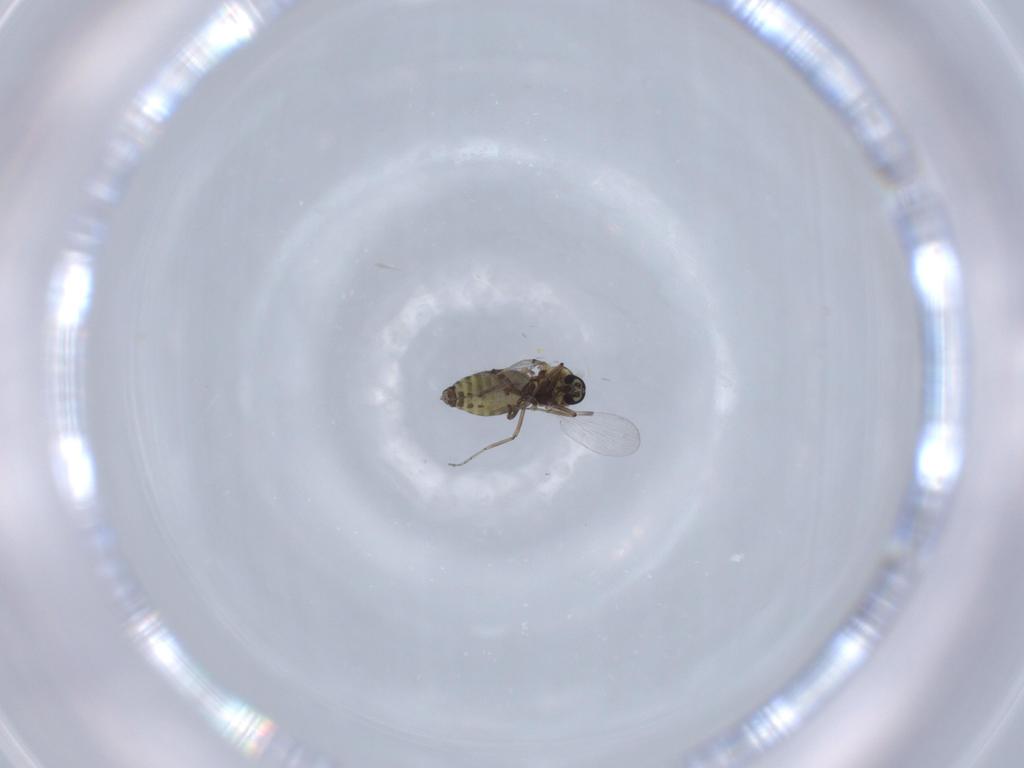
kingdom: Animalia
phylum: Arthropoda
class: Insecta
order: Diptera
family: Ceratopogonidae
